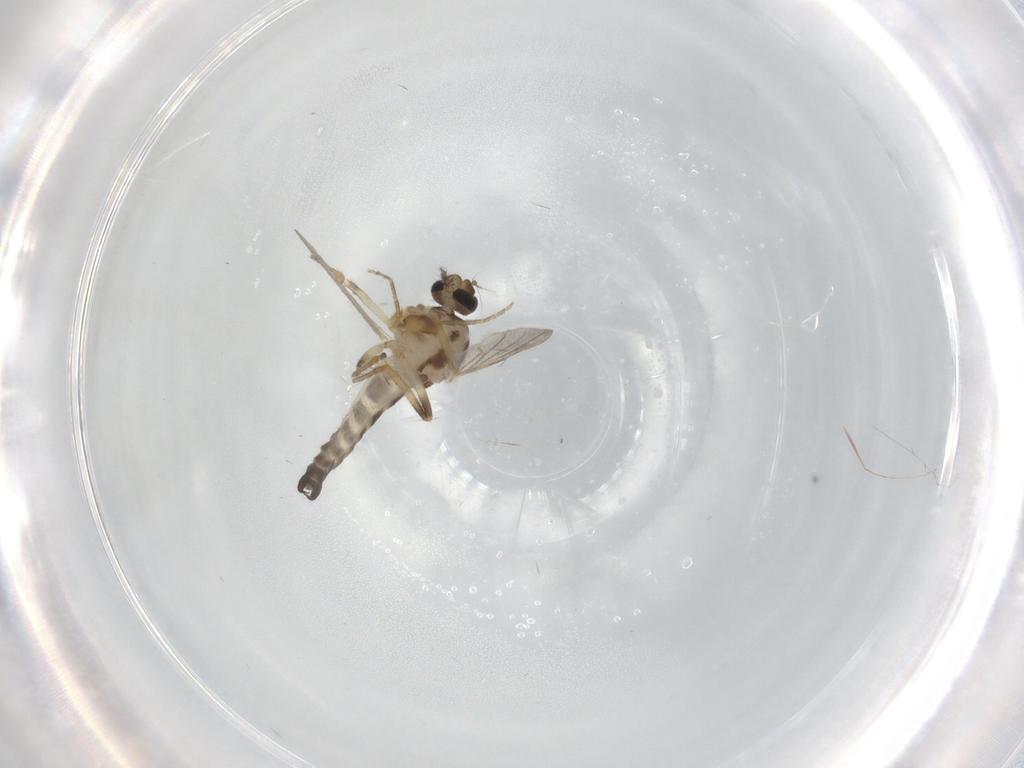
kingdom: Animalia
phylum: Arthropoda
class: Insecta
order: Diptera
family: Ceratopogonidae
